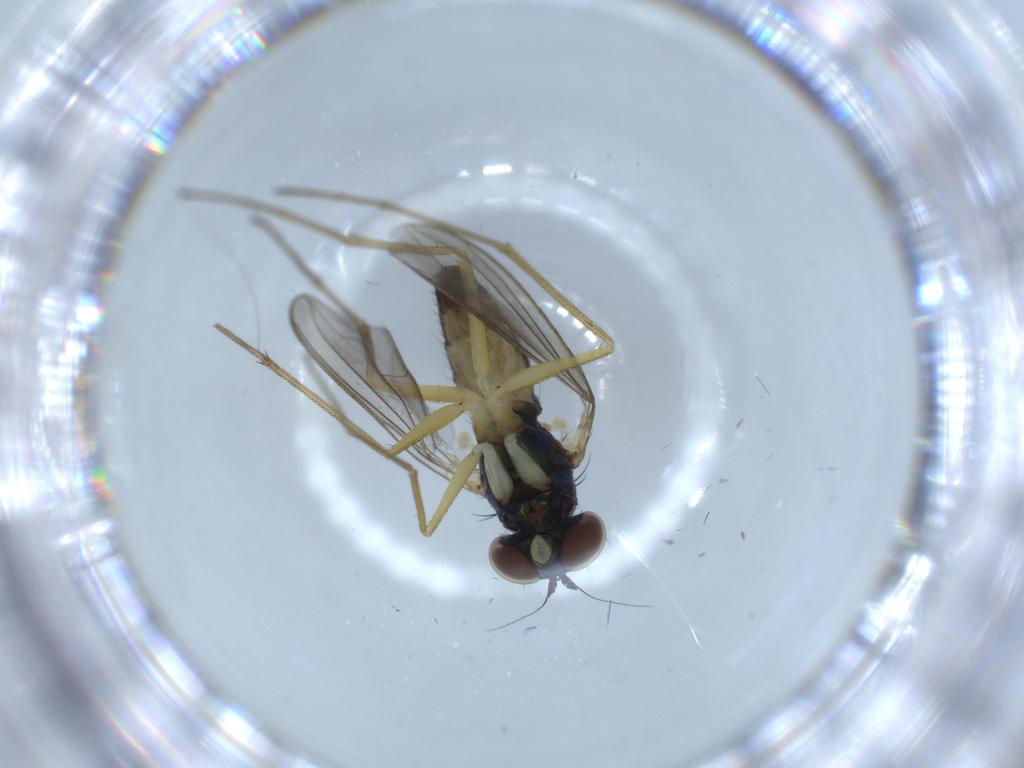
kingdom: Animalia
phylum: Arthropoda
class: Insecta
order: Diptera
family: Dolichopodidae
